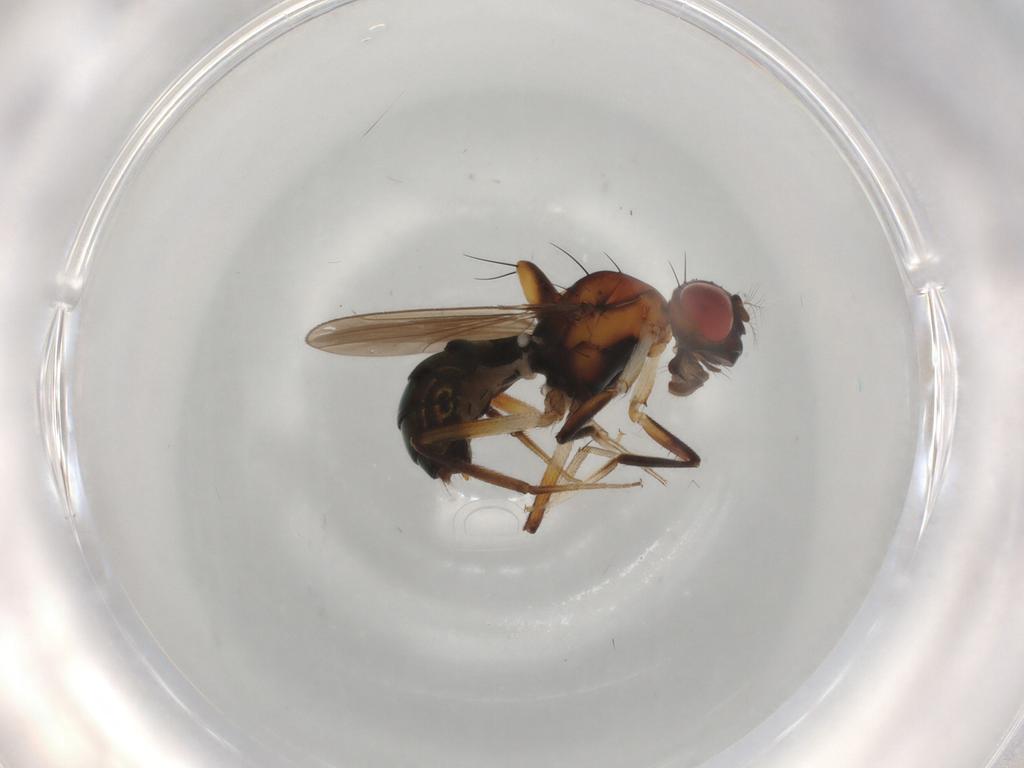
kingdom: Animalia
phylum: Arthropoda
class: Insecta
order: Diptera
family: Drosophilidae
